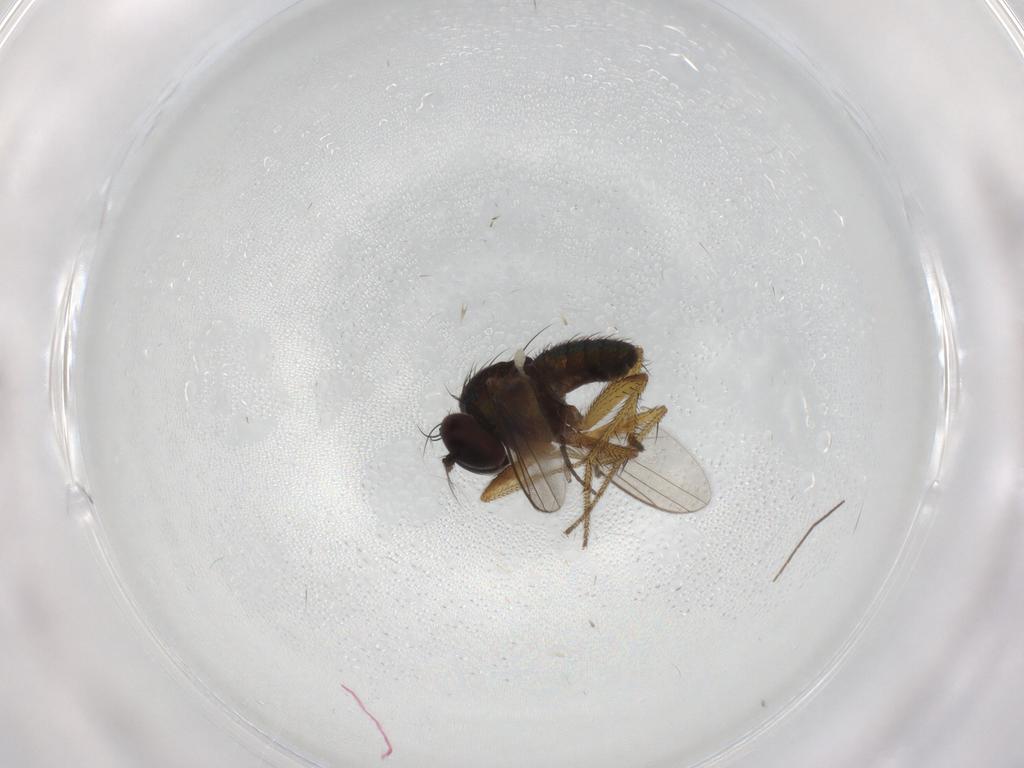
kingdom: Animalia
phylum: Arthropoda
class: Insecta
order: Diptera
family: Sciaridae
